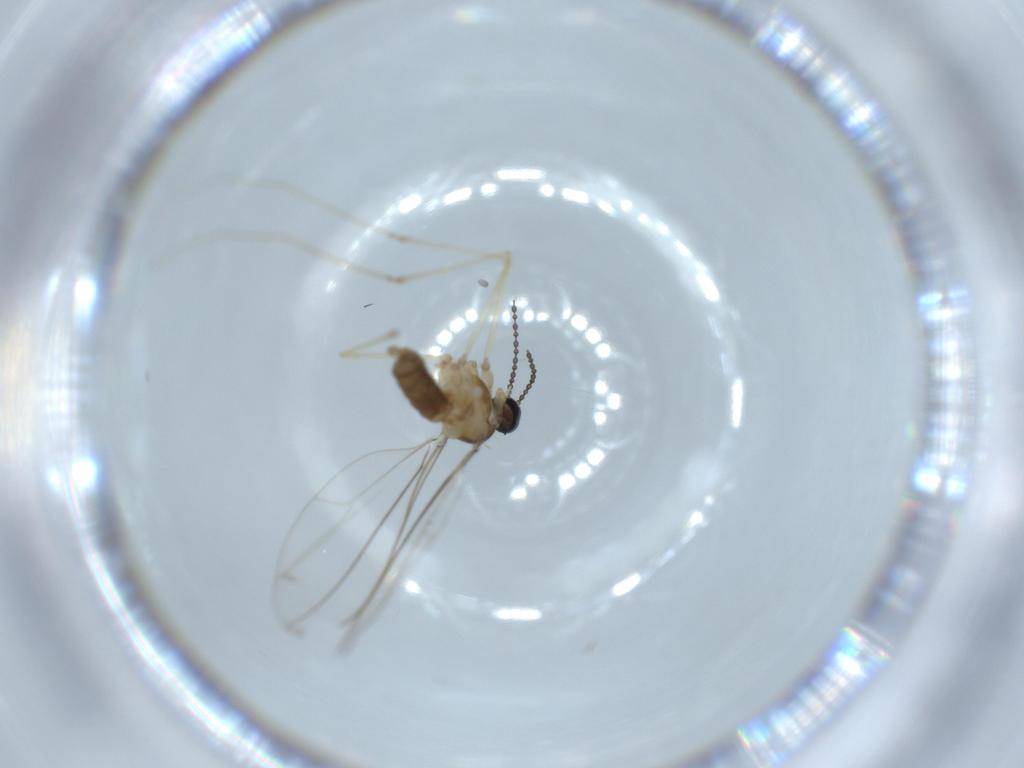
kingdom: Animalia
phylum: Arthropoda
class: Insecta
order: Diptera
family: Cecidomyiidae
